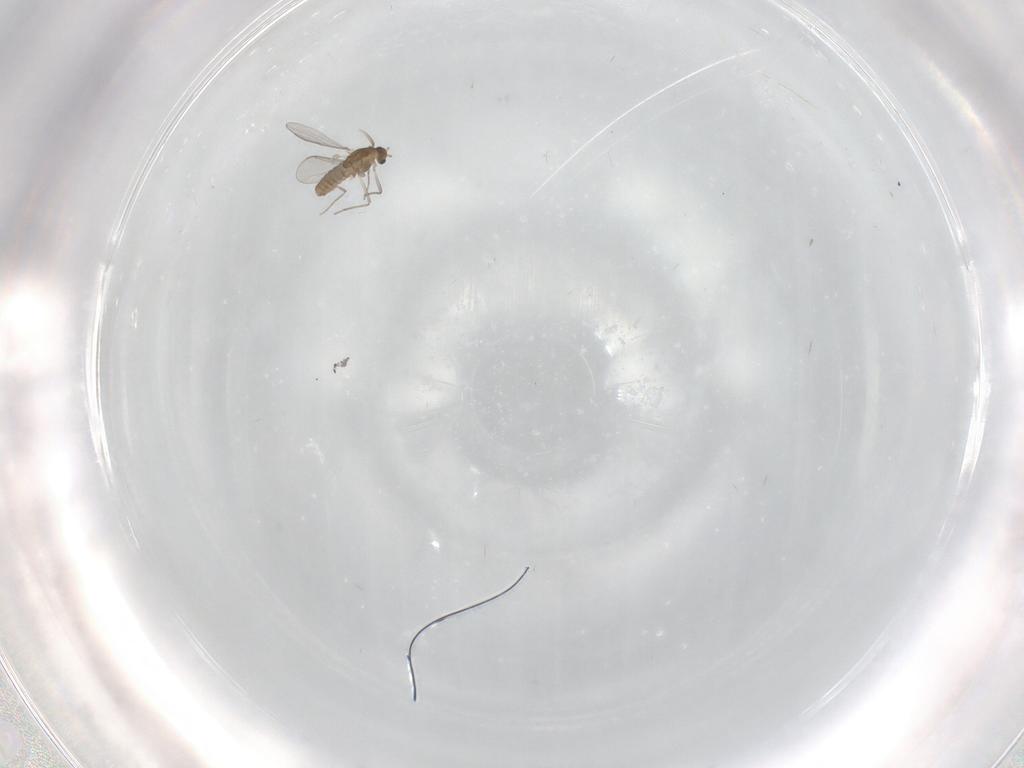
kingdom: Animalia
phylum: Arthropoda
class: Insecta
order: Diptera
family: Chironomidae
